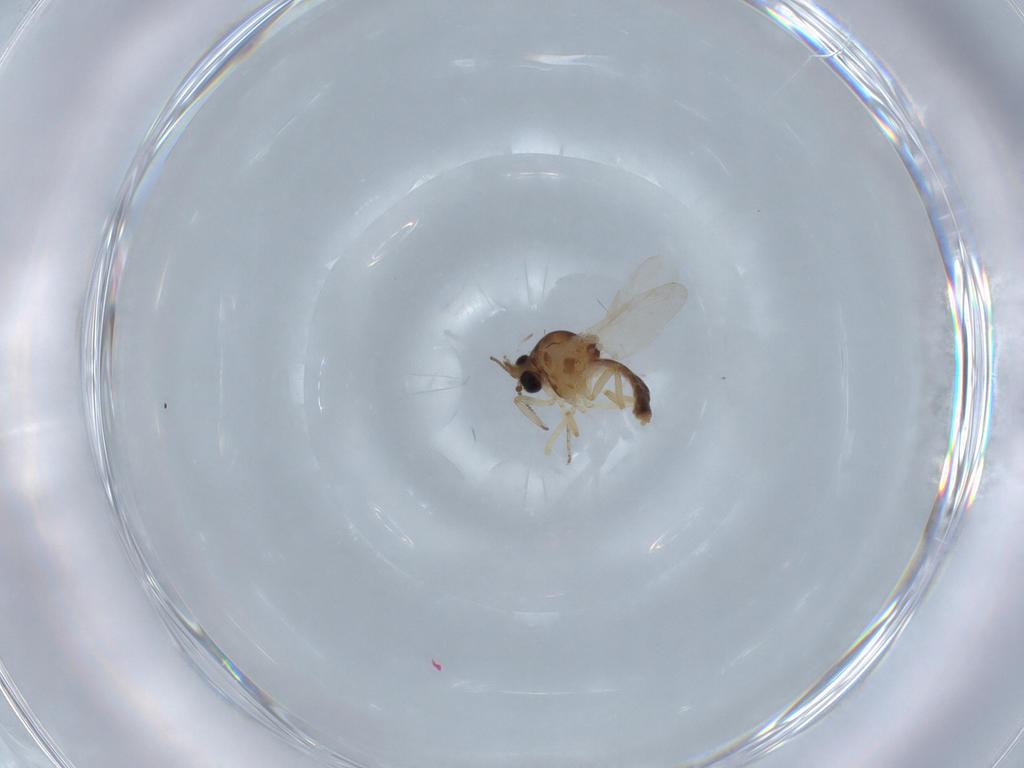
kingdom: Animalia
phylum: Arthropoda
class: Insecta
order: Diptera
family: Ceratopogonidae
